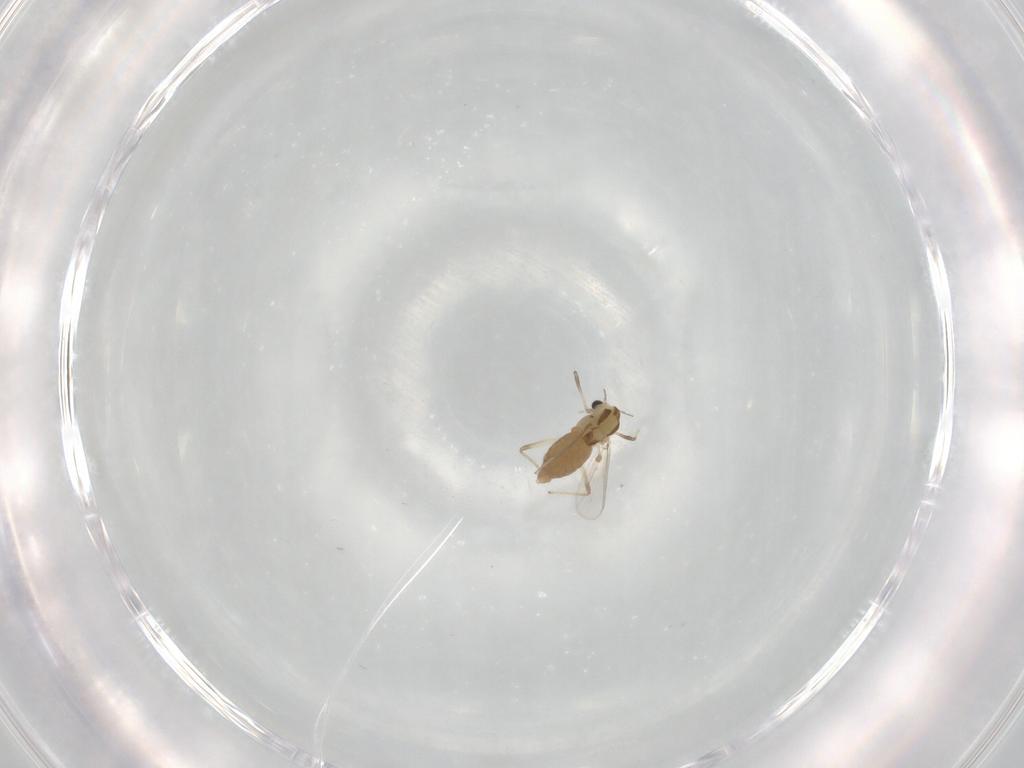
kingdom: Animalia
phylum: Arthropoda
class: Insecta
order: Diptera
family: Chironomidae
